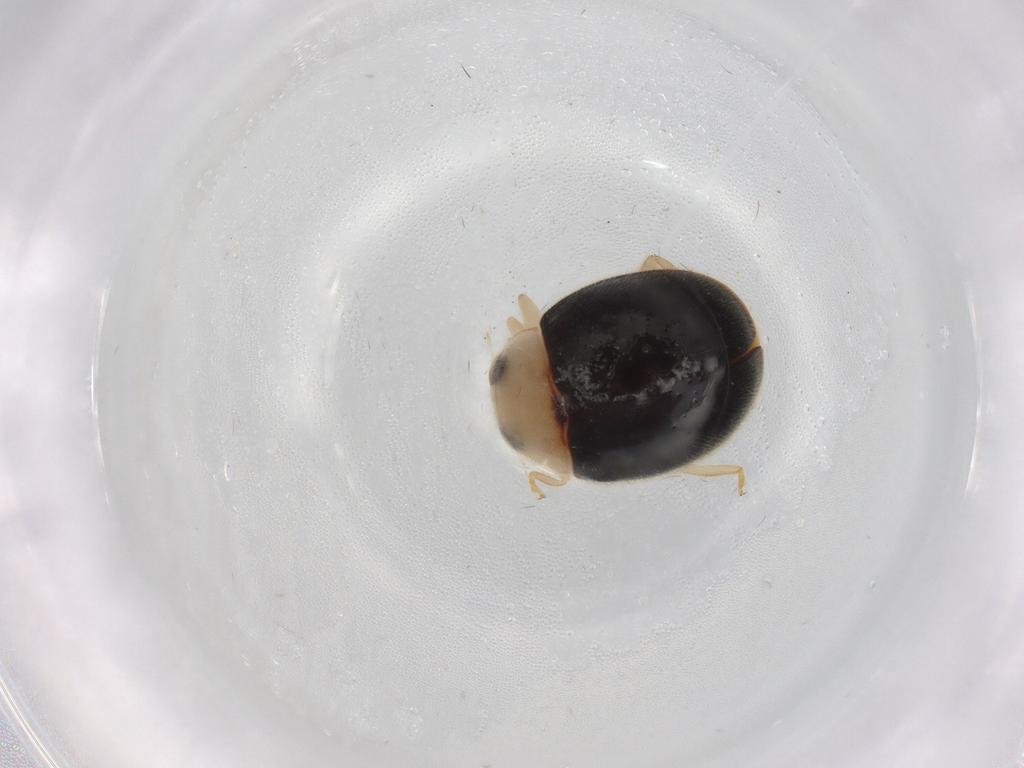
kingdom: Animalia
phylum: Arthropoda
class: Insecta
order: Coleoptera
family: Coccinellidae
